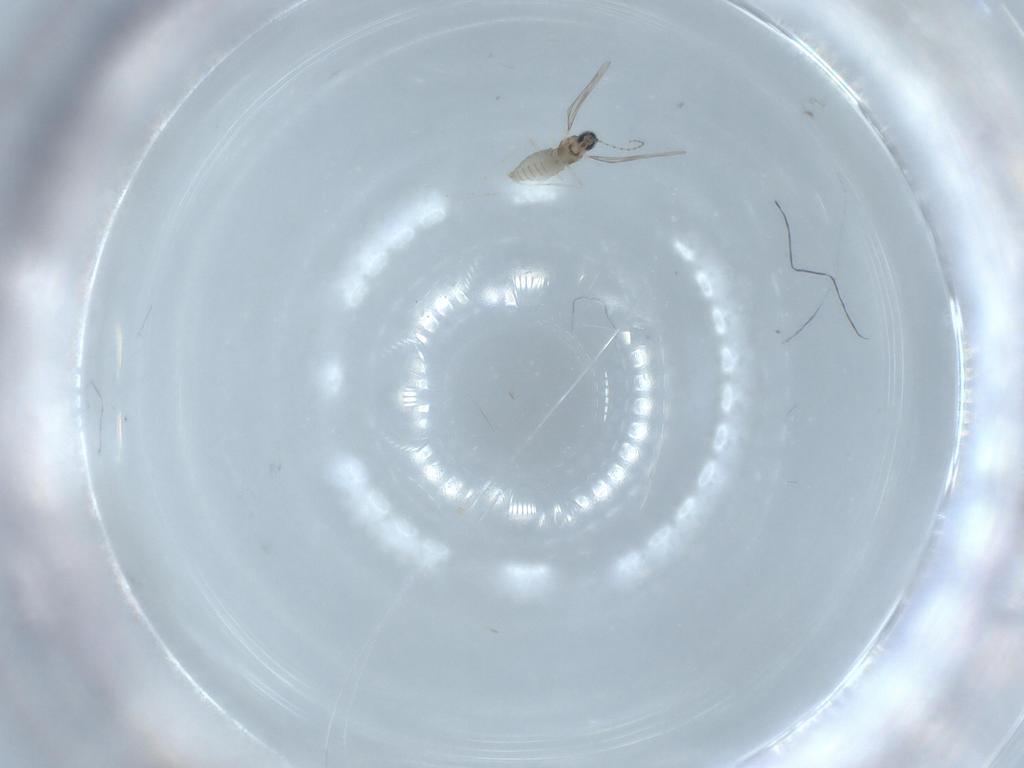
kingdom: Animalia
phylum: Arthropoda
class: Insecta
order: Diptera
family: Cecidomyiidae
